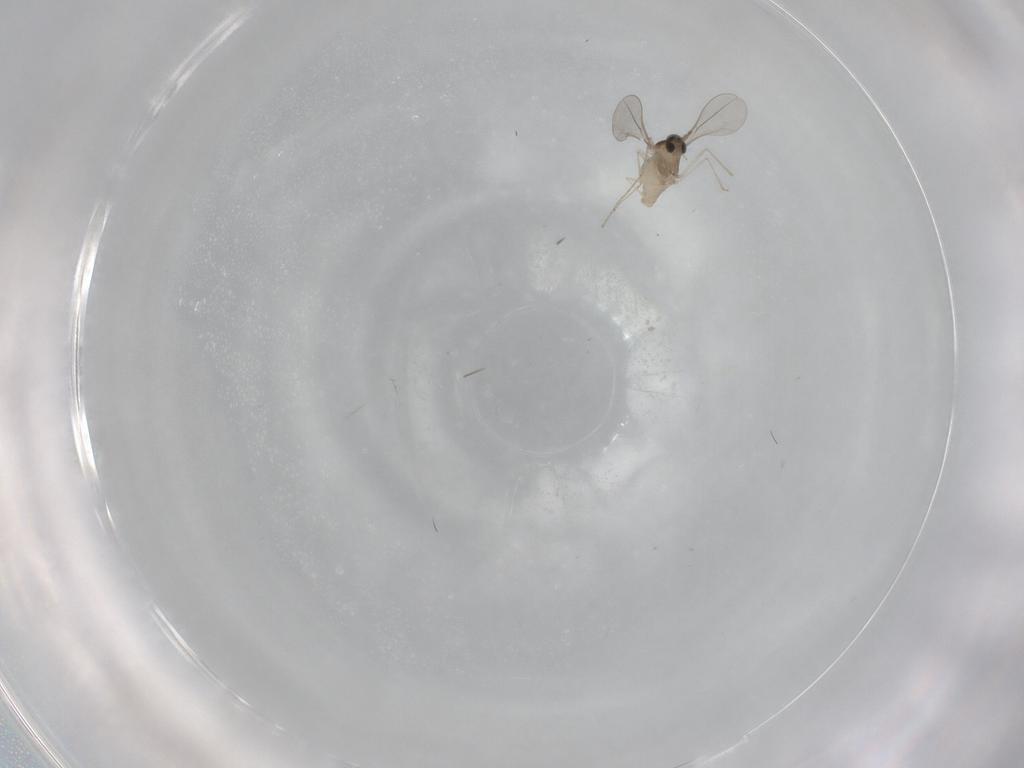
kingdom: Animalia
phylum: Arthropoda
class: Insecta
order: Diptera
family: Cecidomyiidae
